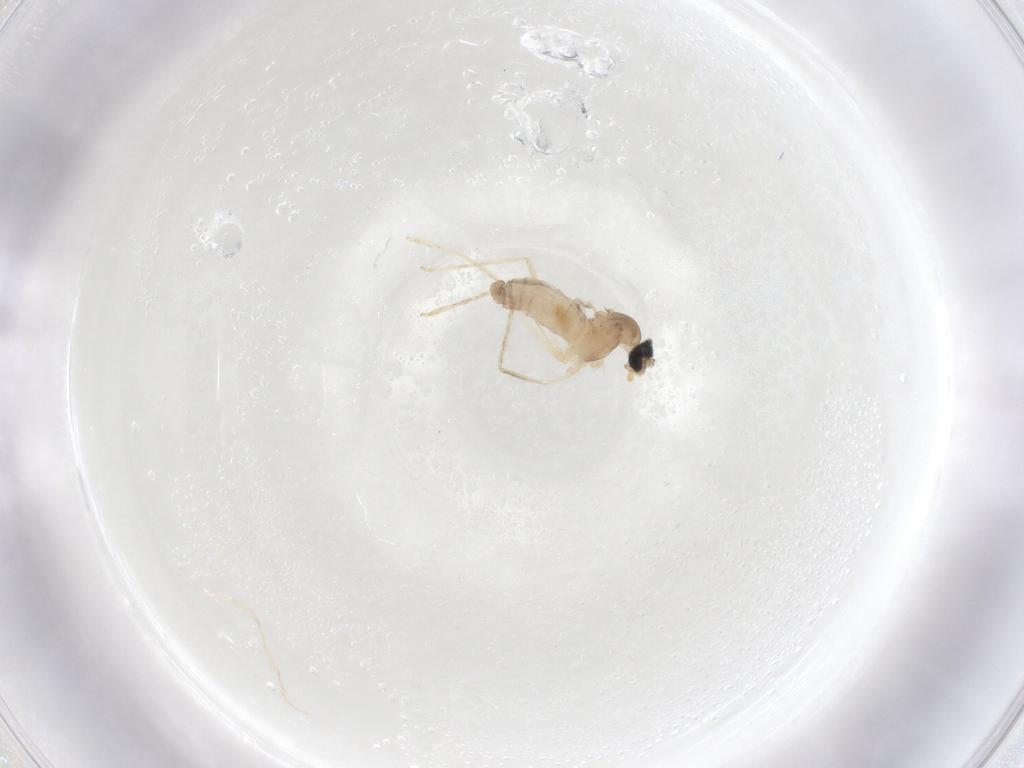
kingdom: Animalia
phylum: Arthropoda
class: Insecta
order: Diptera
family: Cecidomyiidae
